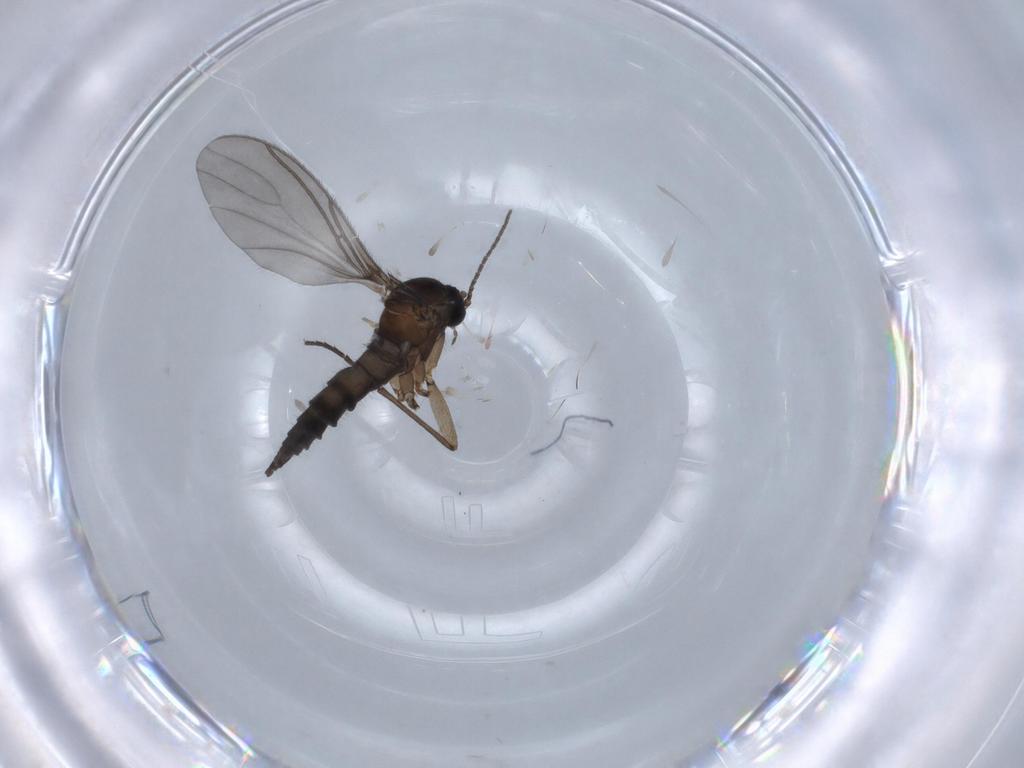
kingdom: Animalia
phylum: Arthropoda
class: Insecta
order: Diptera
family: Sciaridae
